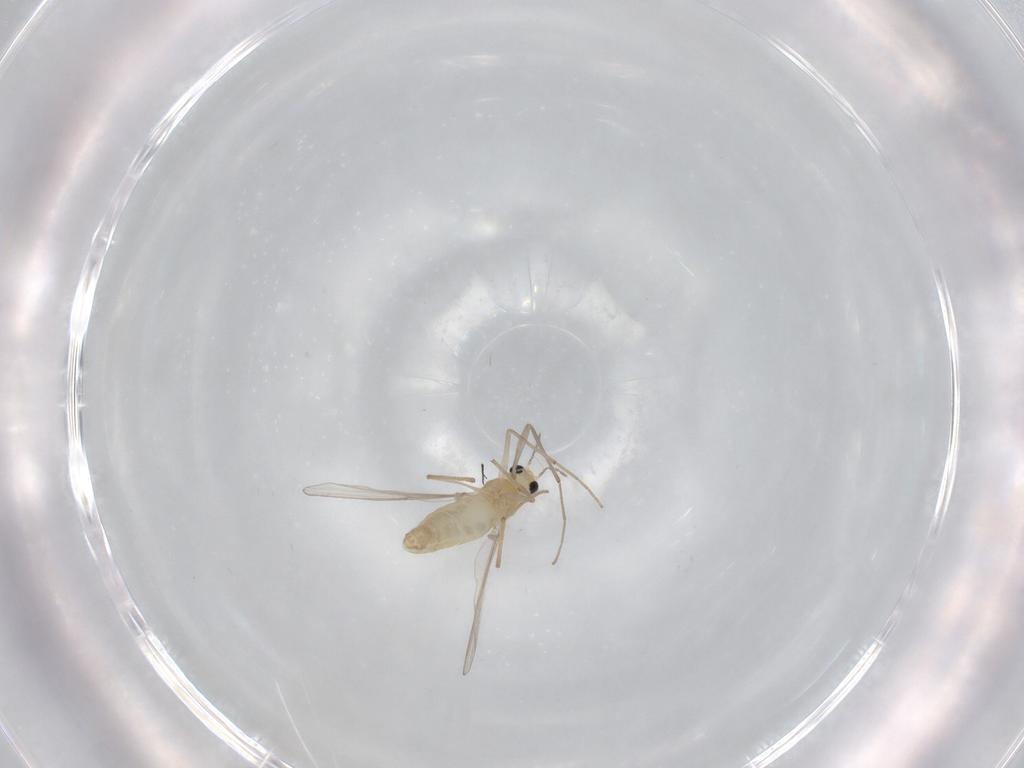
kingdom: Animalia
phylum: Arthropoda
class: Insecta
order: Diptera
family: Chironomidae
